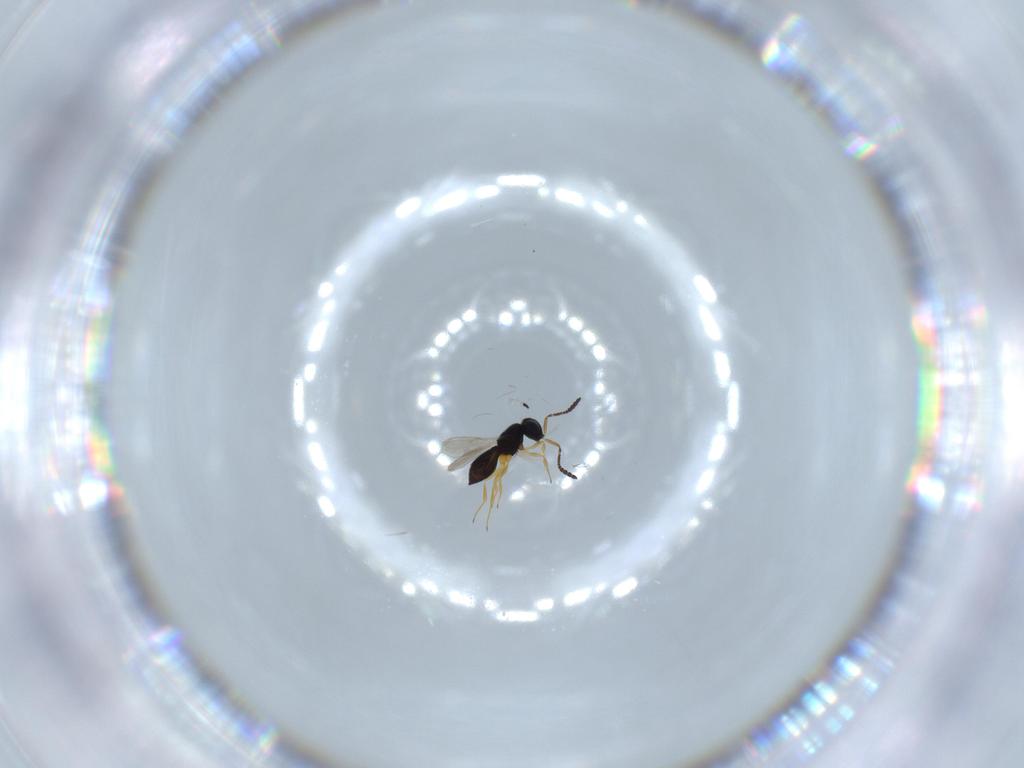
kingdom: Animalia
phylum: Arthropoda
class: Insecta
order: Hymenoptera
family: Scelionidae
